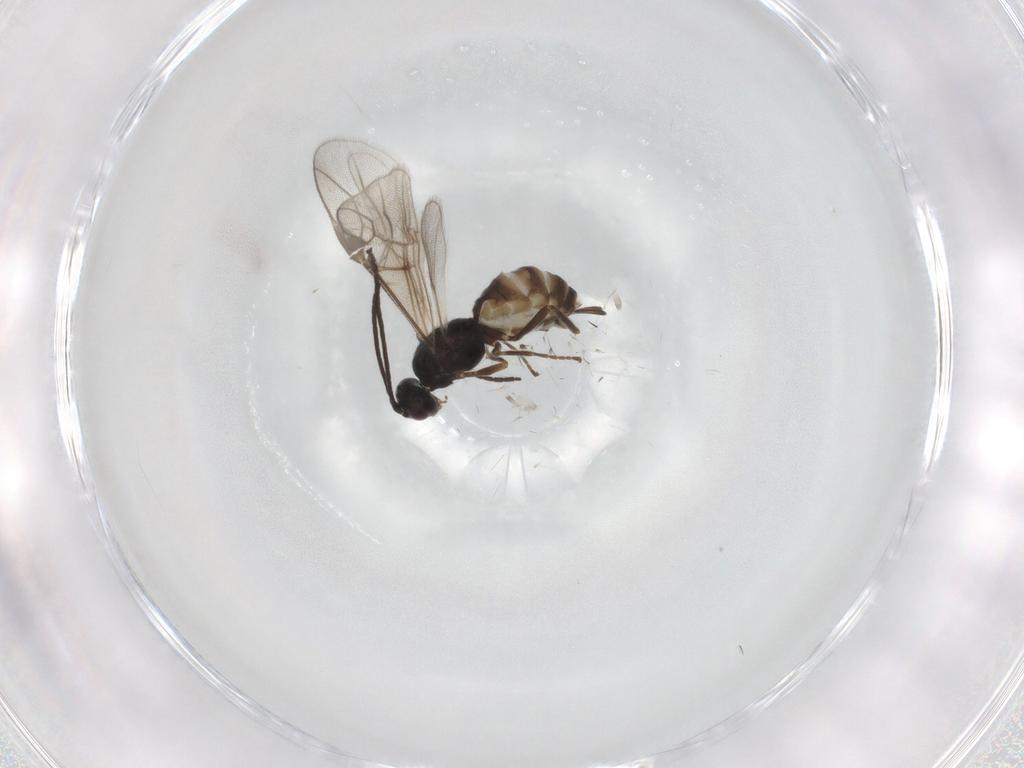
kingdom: Animalia
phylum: Arthropoda
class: Insecta
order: Hymenoptera
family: Braconidae
